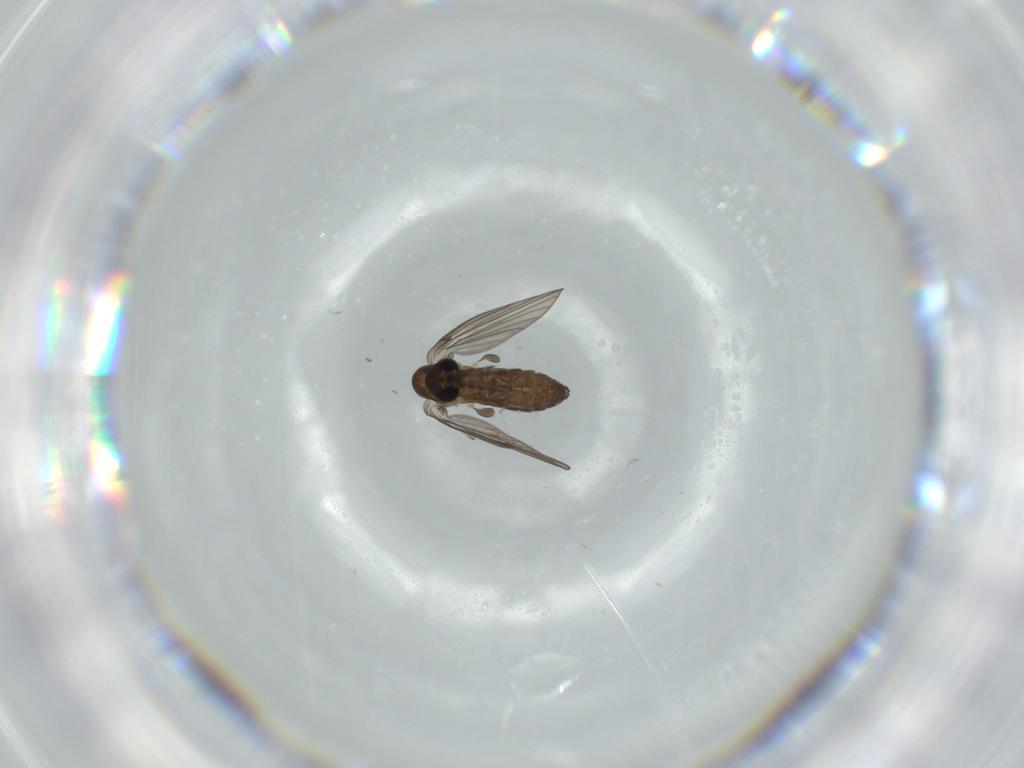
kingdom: Animalia
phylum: Arthropoda
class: Insecta
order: Diptera
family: Psychodidae
